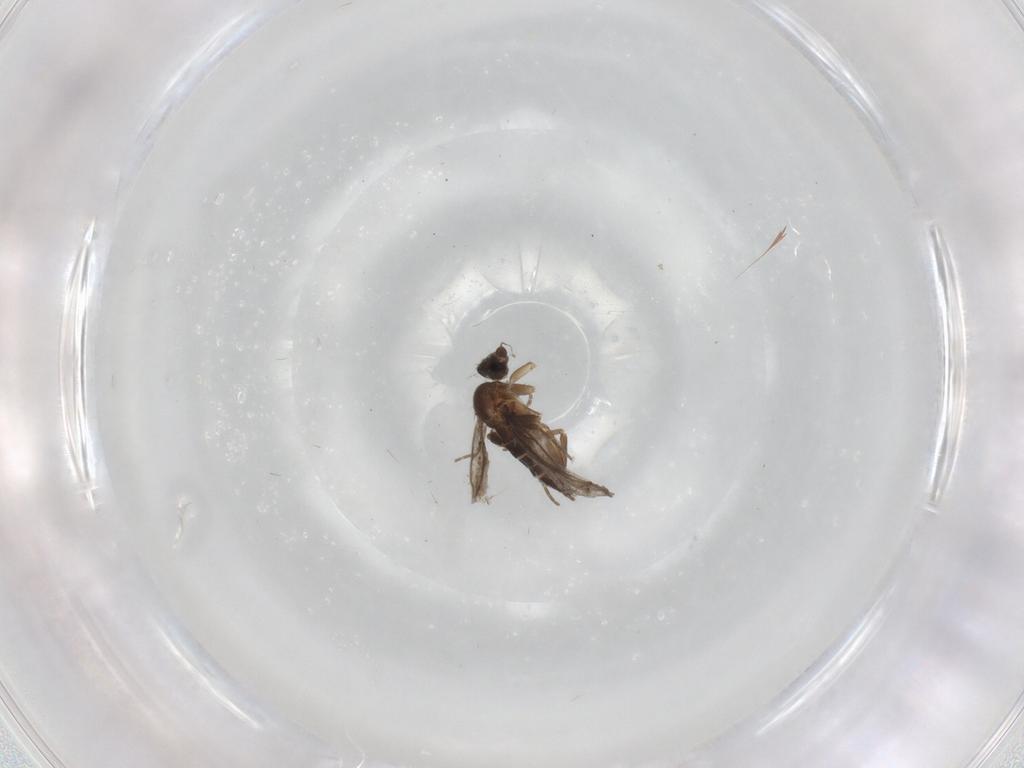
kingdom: Animalia
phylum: Arthropoda
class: Insecta
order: Diptera
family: Chironomidae
